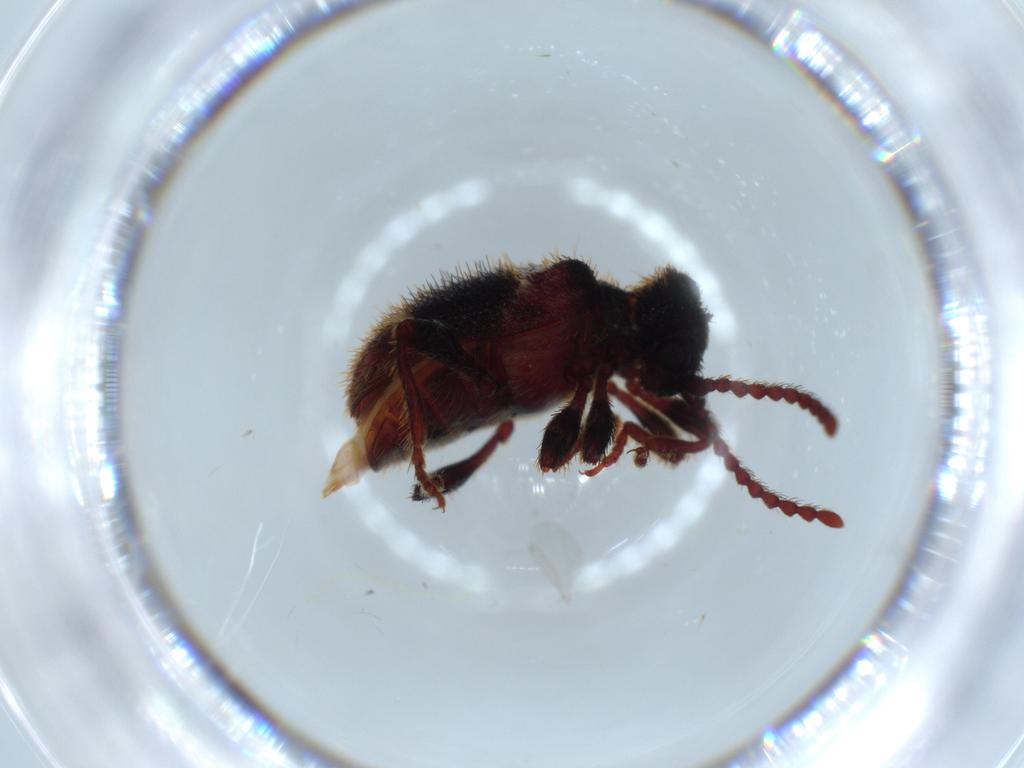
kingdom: Animalia
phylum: Arthropoda
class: Insecta
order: Coleoptera
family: Ptinidae
